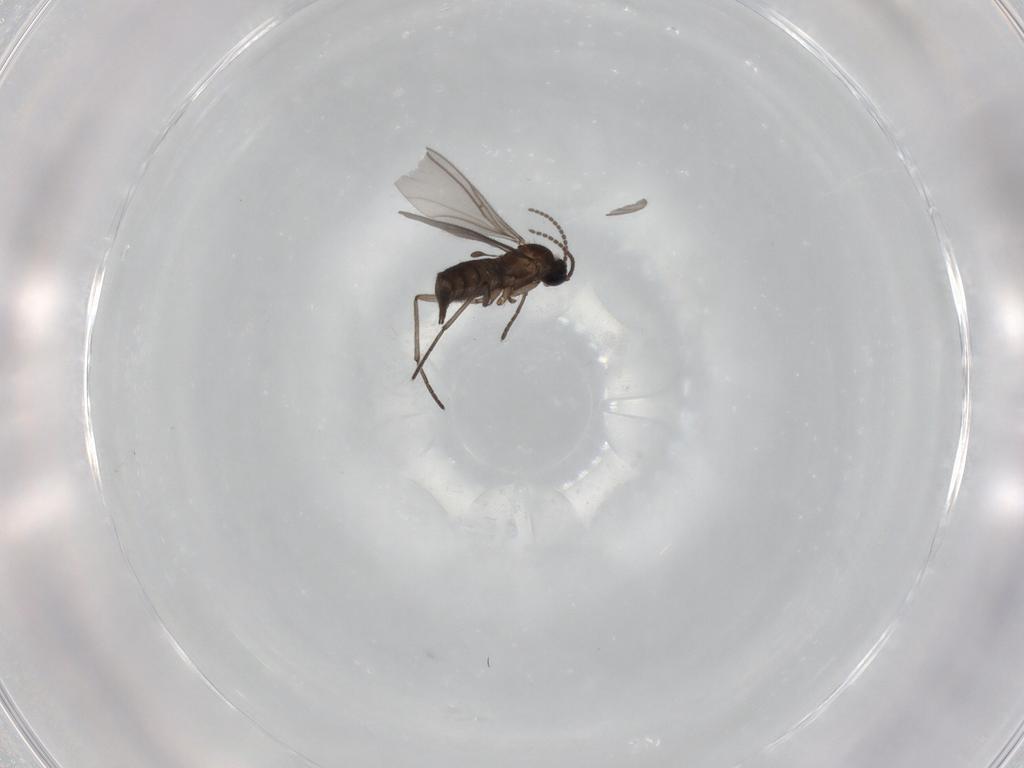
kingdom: Animalia
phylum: Arthropoda
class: Insecta
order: Diptera
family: Sciaridae
